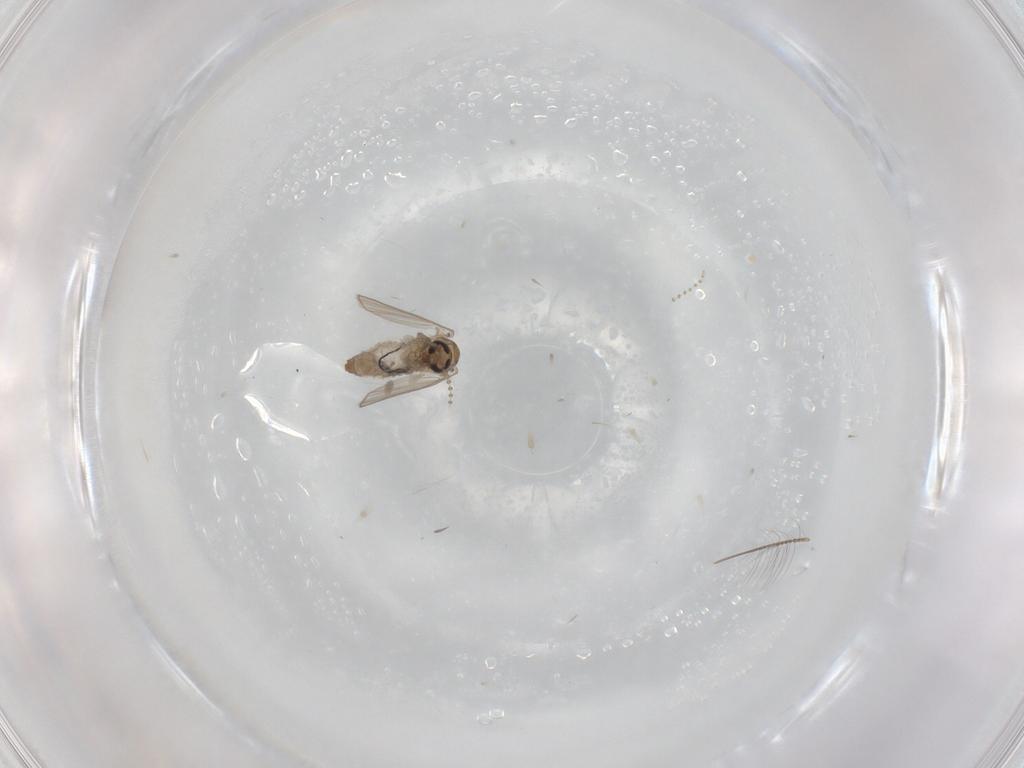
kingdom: Animalia
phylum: Arthropoda
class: Insecta
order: Diptera
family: Psychodidae
